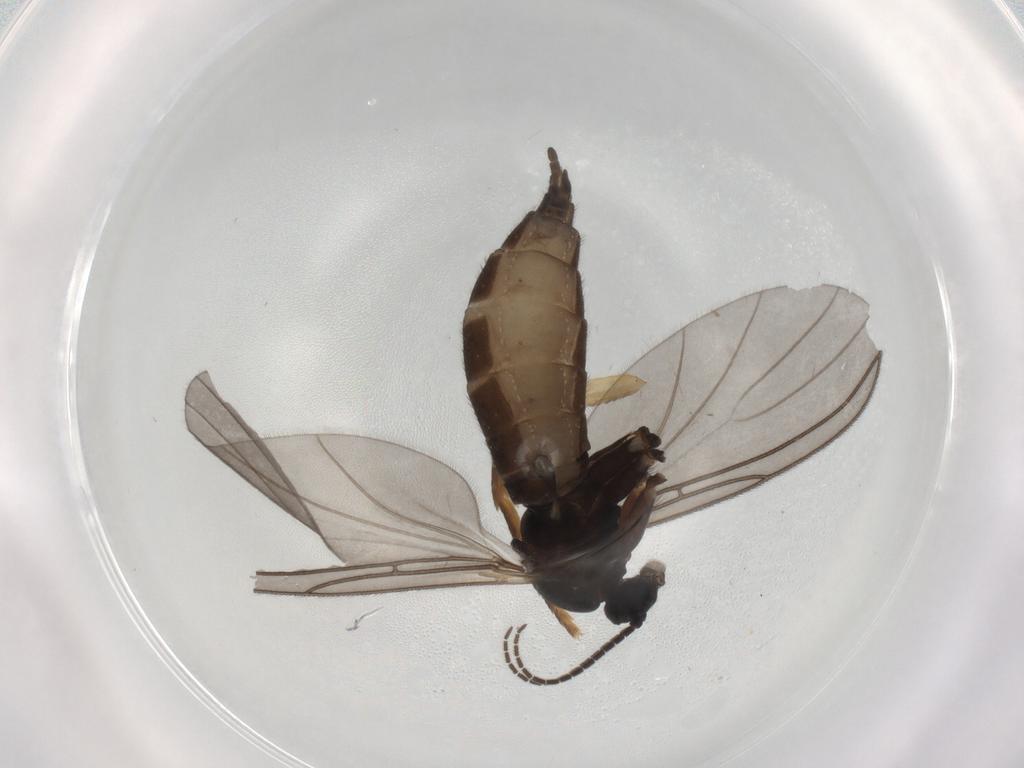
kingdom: Animalia
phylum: Arthropoda
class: Insecta
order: Diptera
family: Sciaridae
